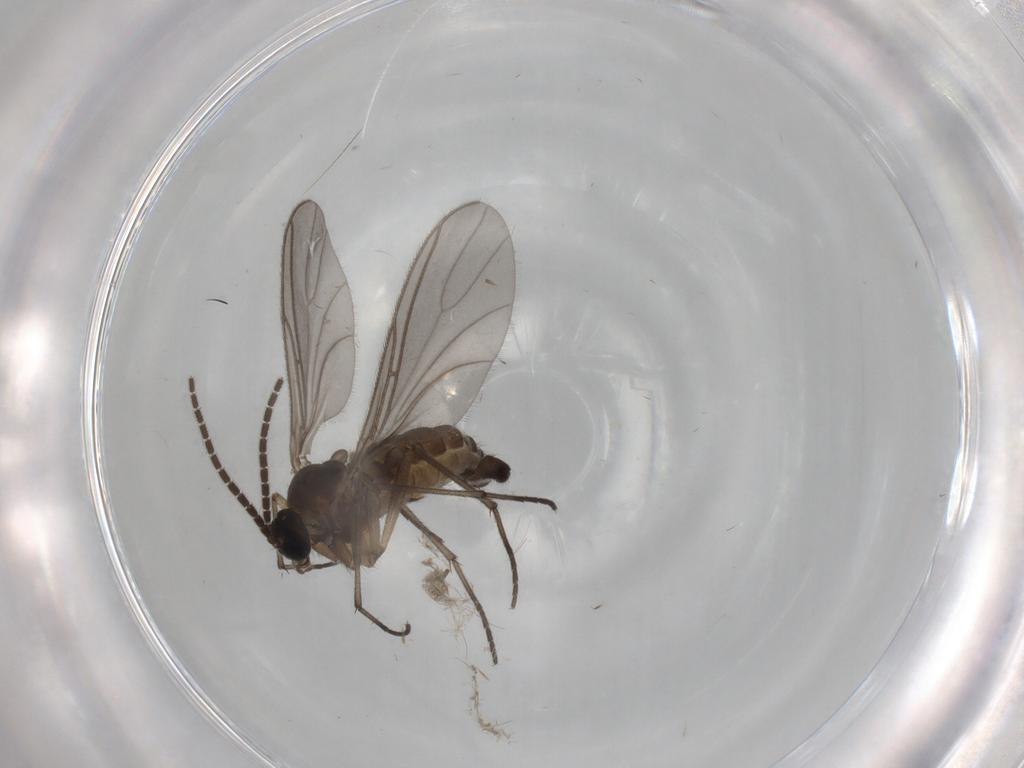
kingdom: Animalia
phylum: Arthropoda
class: Insecta
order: Diptera
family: Sciaridae
